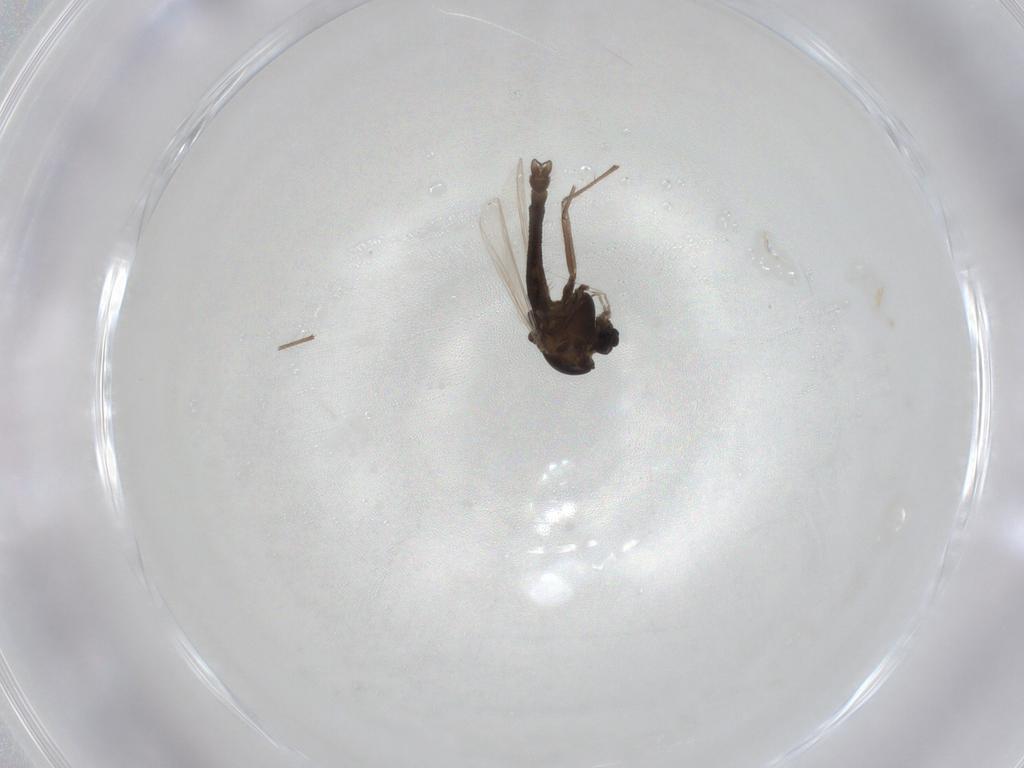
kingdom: Animalia
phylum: Arthropoda
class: Insecta
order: Diptera
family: Chironomidae
